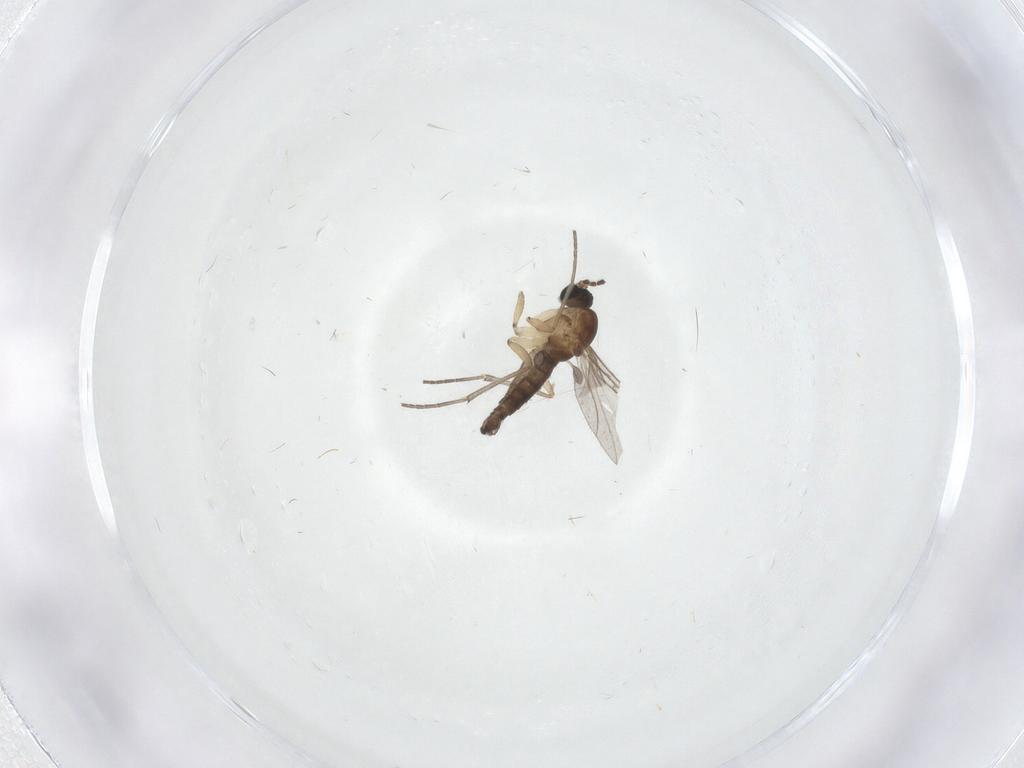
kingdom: Animalia
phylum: Arthropoda
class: Insecta
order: Diptera
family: Sciaridae
